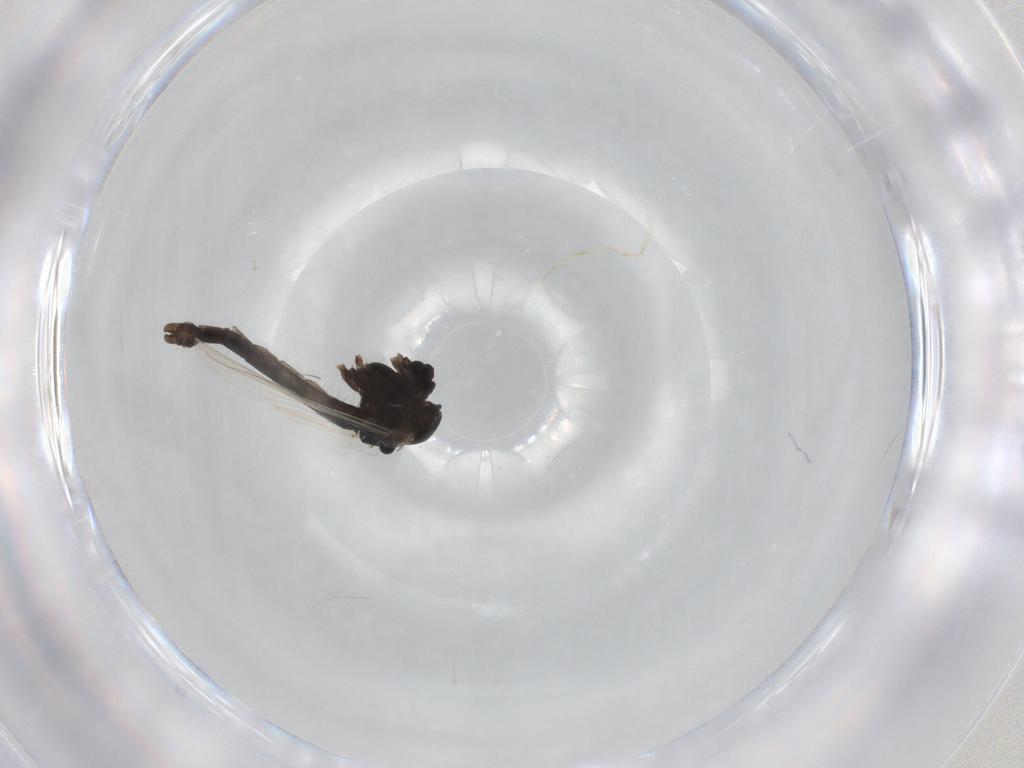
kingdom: Animalia
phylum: Arthropoda
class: Insecta
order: Diptera
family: Chironomidae
